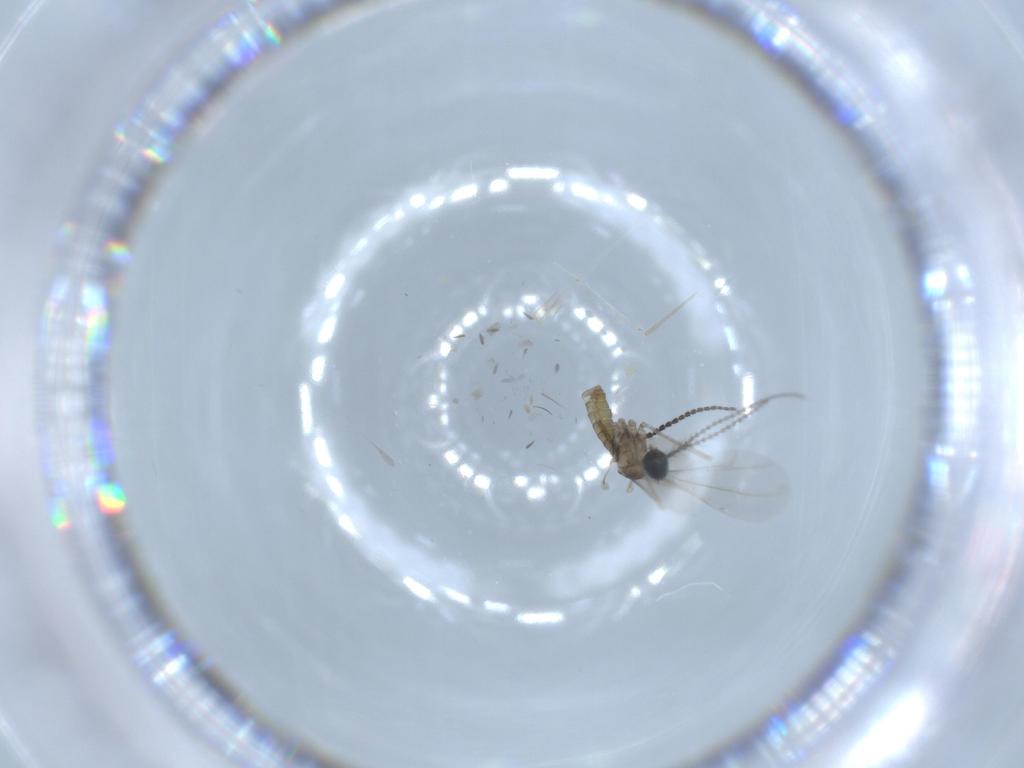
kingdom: Animalia
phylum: Arthropoda
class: Insecta
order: Diptera
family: Cecidomyiidae
